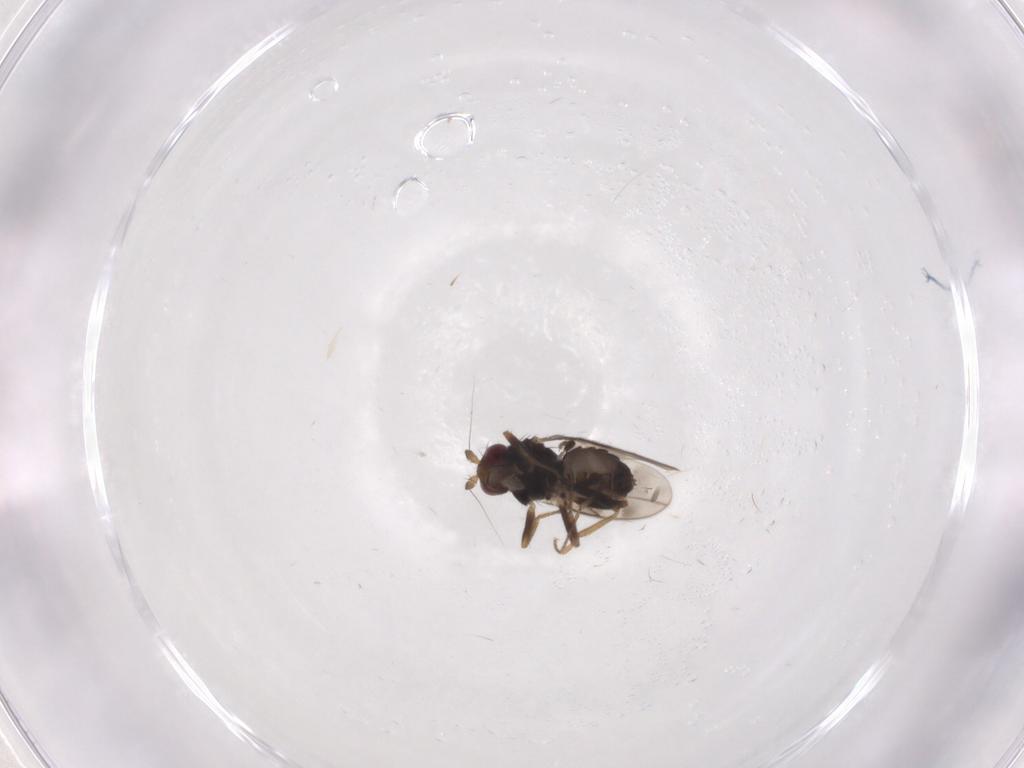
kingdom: Animalia
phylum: Arthropoda
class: Insecta
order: Diptera
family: Sphaeroceridae
